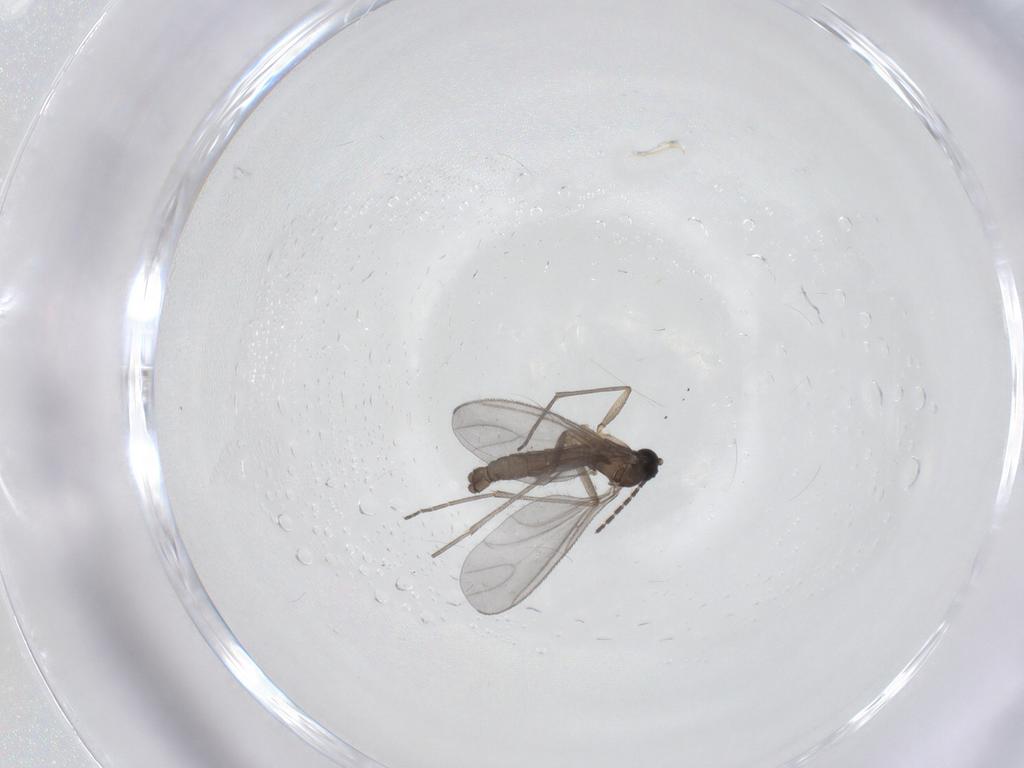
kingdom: Animalia
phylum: Arthropoda
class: Insecta
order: Diptera
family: Sciaridae
